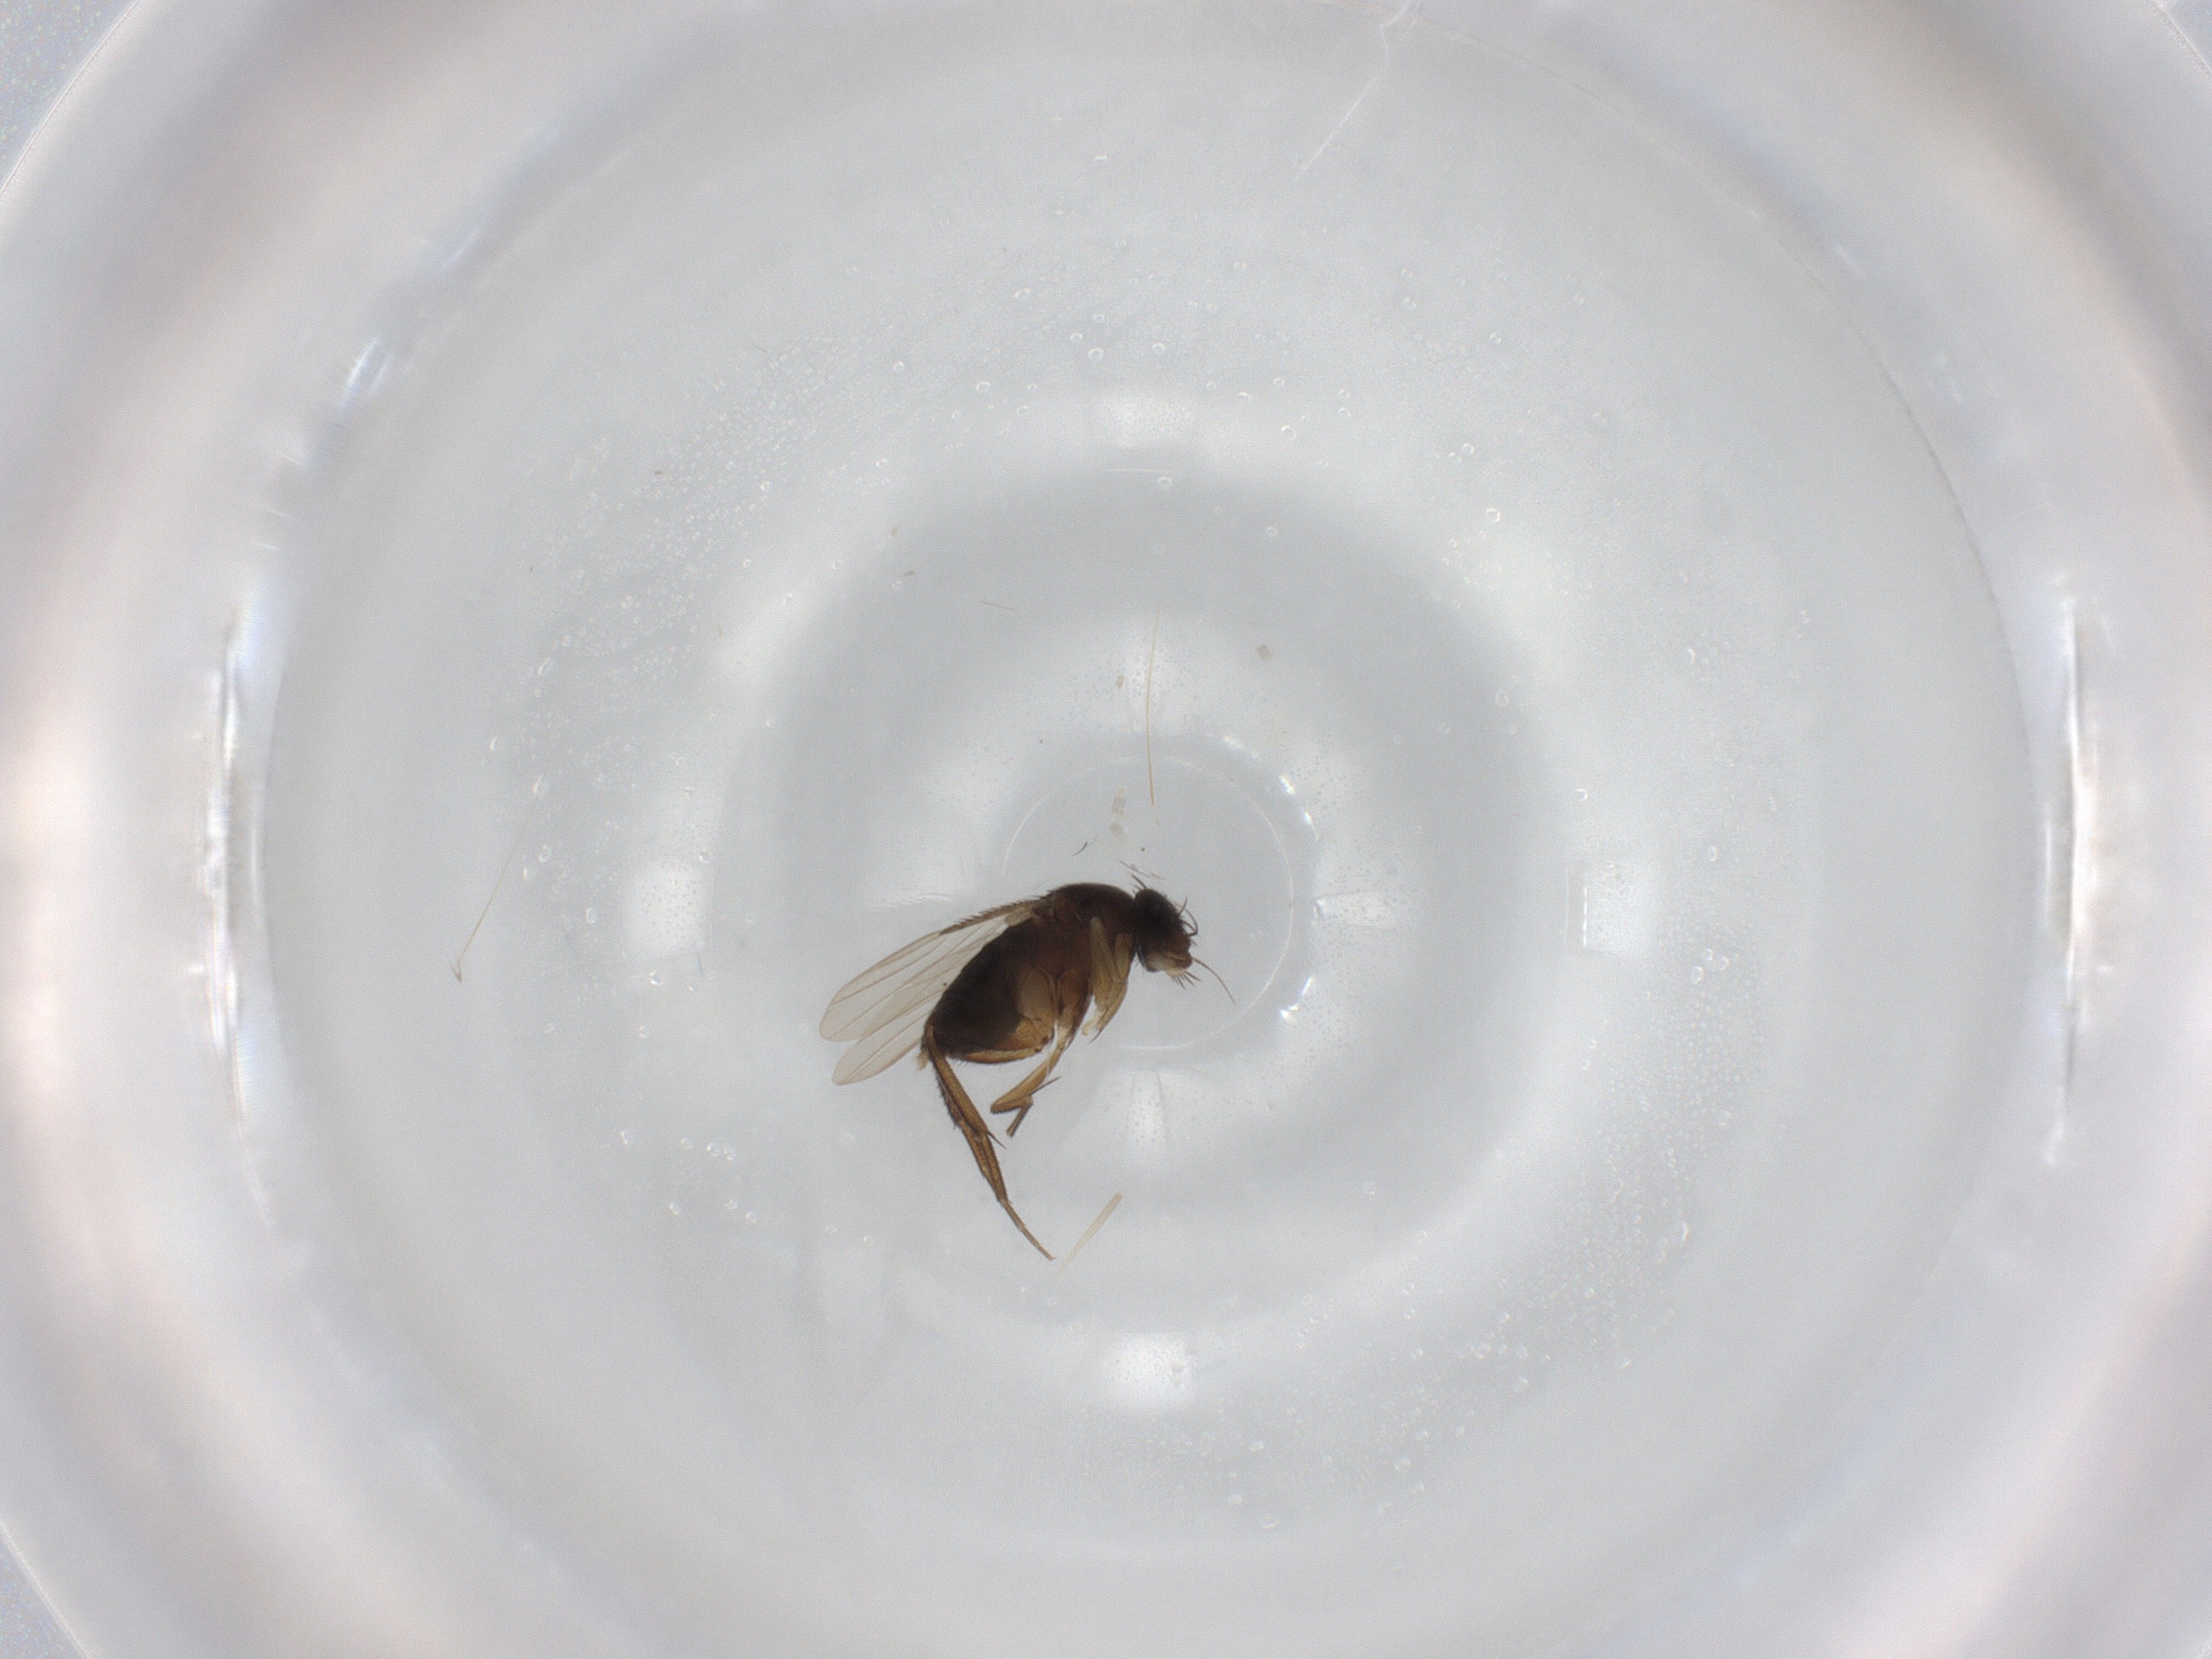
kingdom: Animalia
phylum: Arthropoda
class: Insecta
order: Diptera
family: Phoridae
